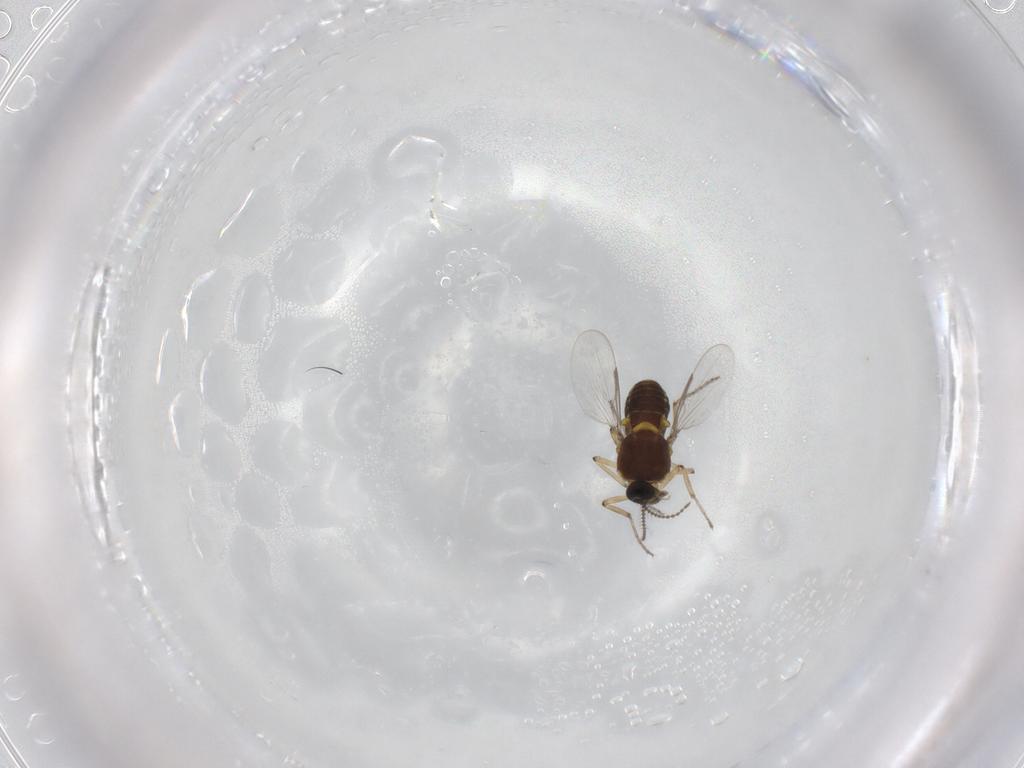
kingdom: Animalia
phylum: Arthropoda
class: Insecta
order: Diptera
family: Ceratopogonidae
